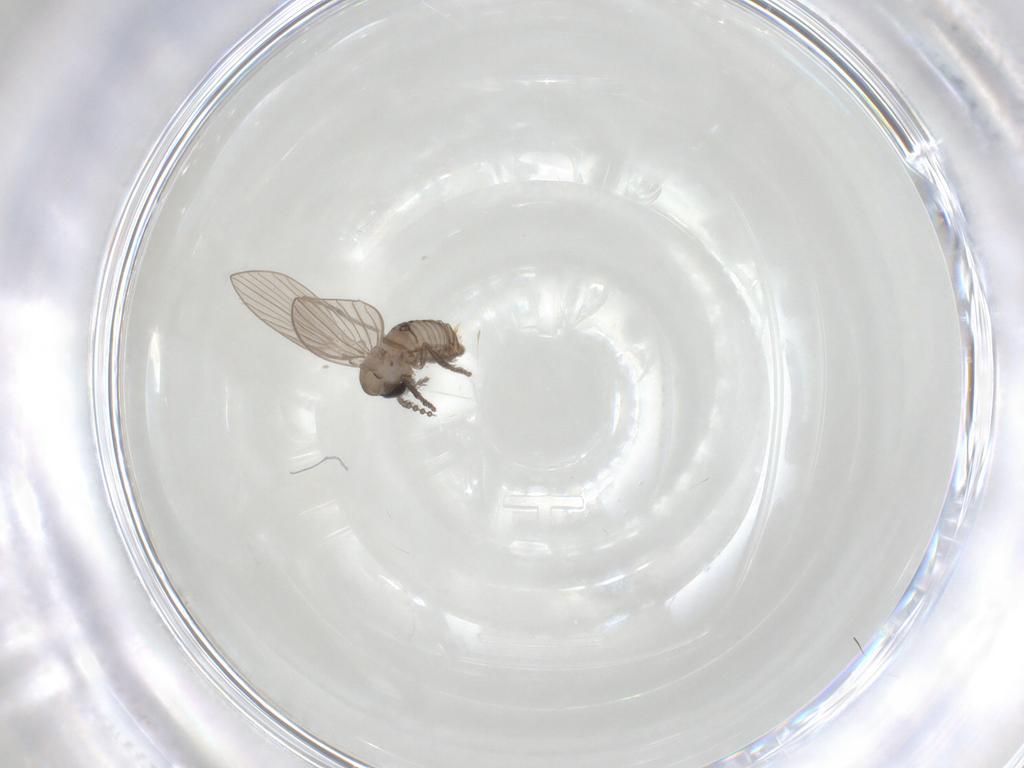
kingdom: Animalia
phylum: Arthropoda
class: Insecta
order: Diptera
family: Psychodidae
